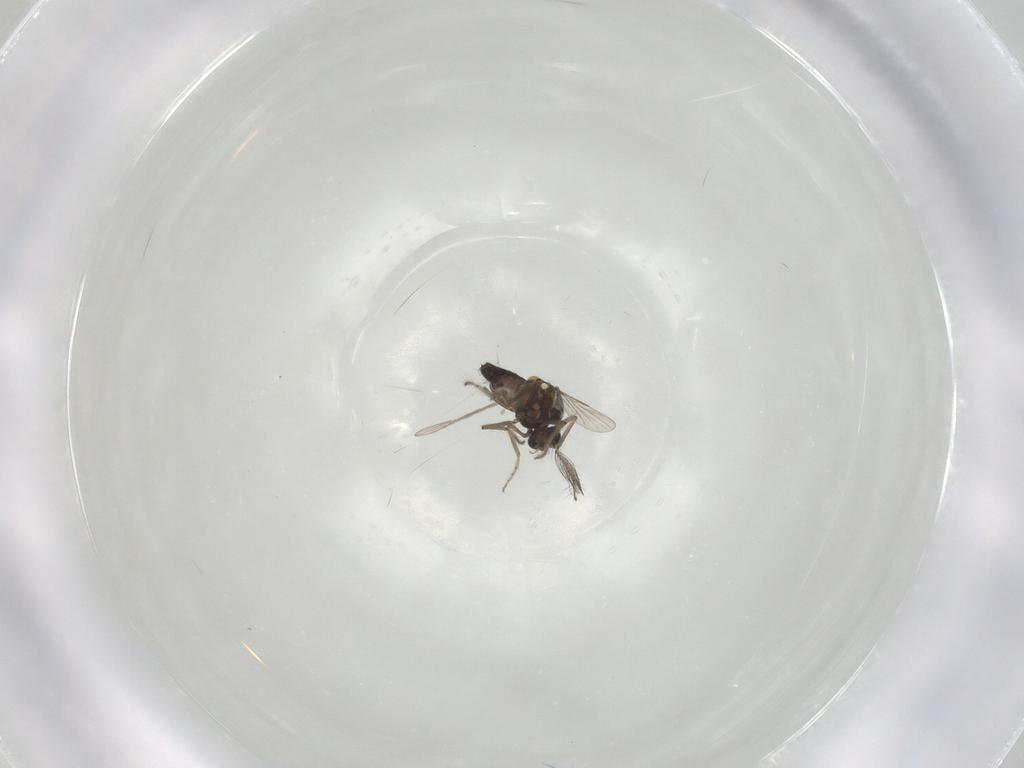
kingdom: Animalia
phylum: Arthropoda
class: Insecta
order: Diptera
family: Ceratopogonidae
